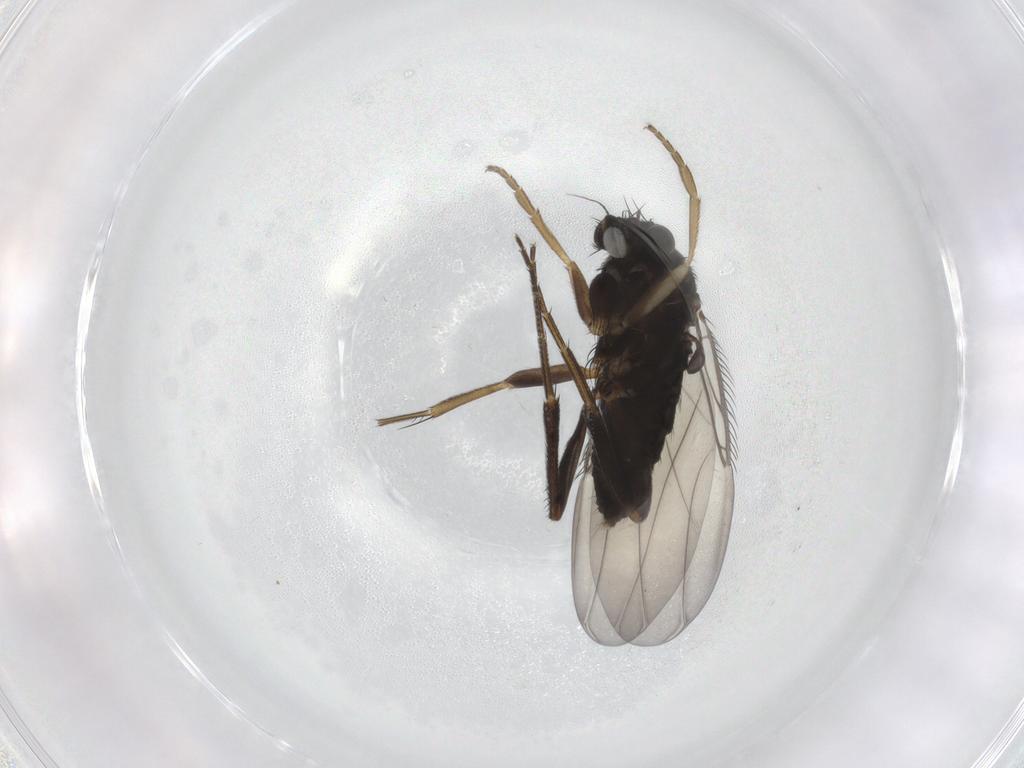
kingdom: Animalia
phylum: Arthropoda
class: Insecta
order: Diptera
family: Phoridae
